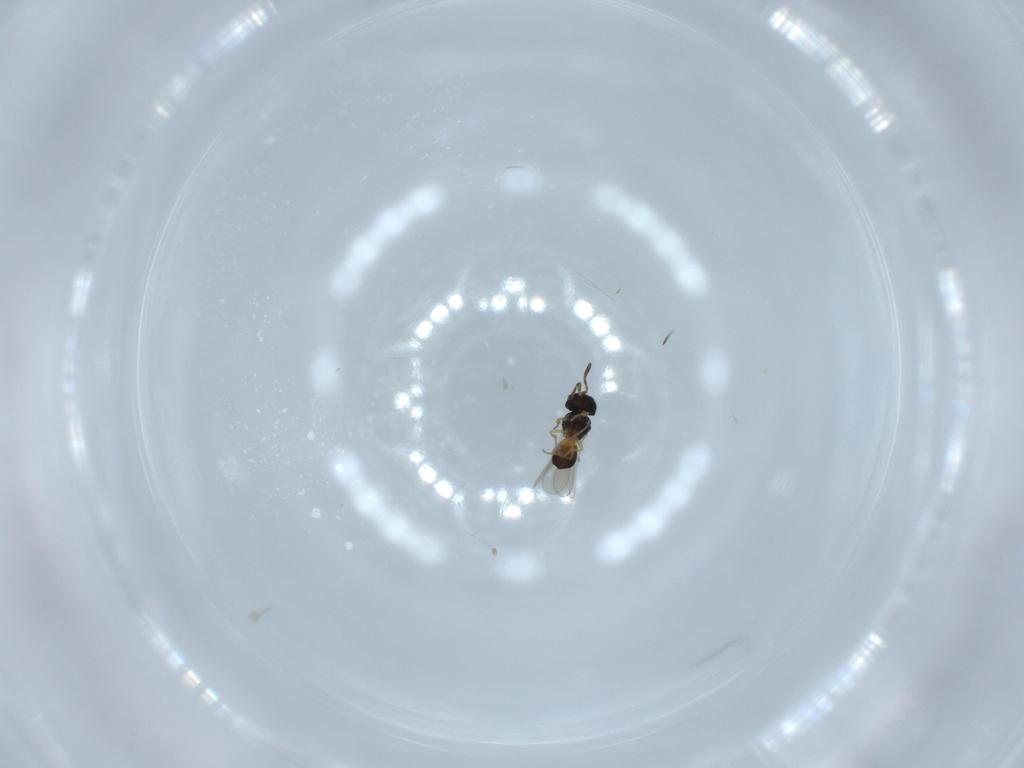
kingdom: Animalia
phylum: Arthropoda
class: Insecta
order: Hymenoptera
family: Scelionidae
